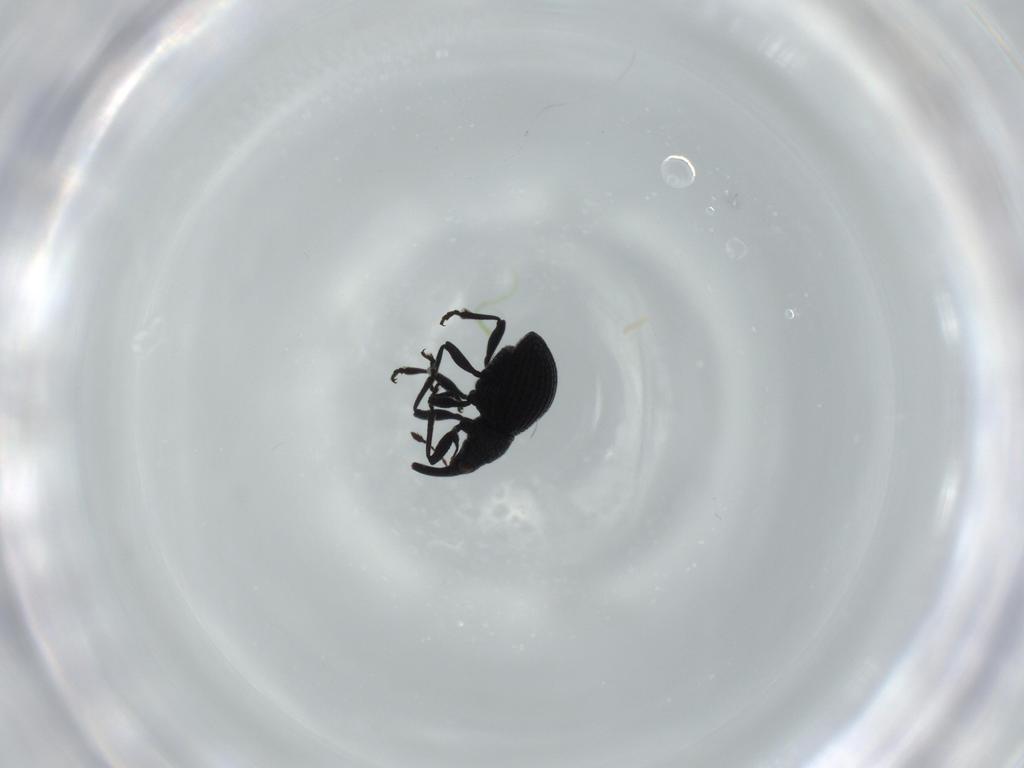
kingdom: Animalia
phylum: Arthropoda
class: Insecta
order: Coleoptera
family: Brentidae
